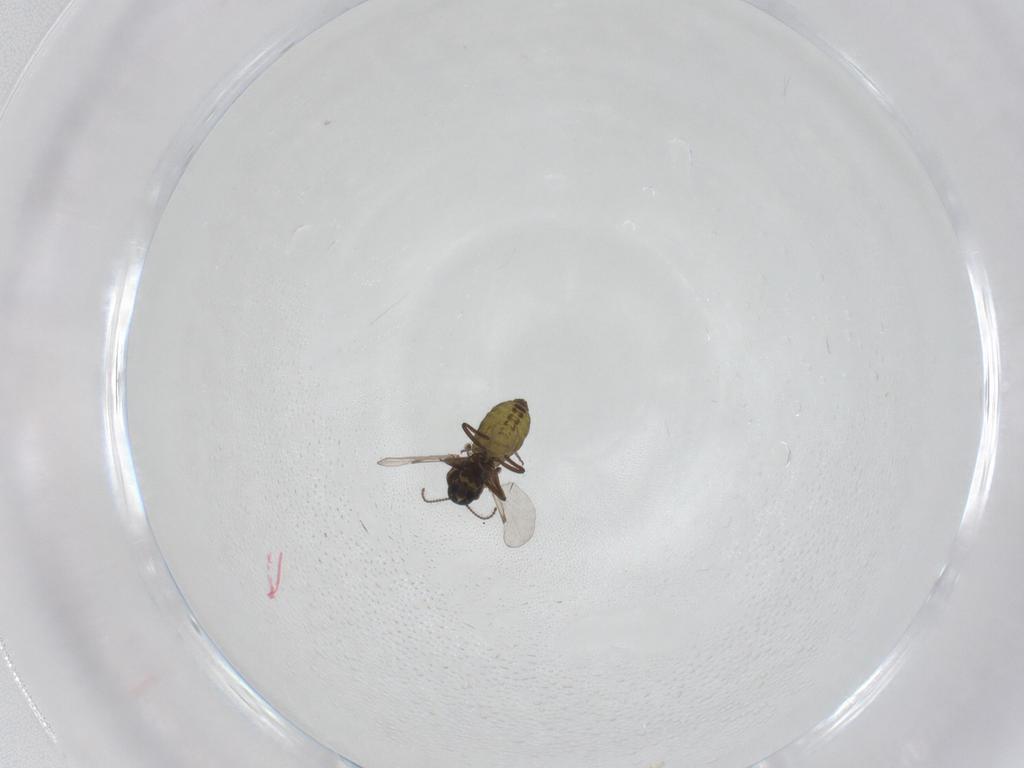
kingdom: Animalia
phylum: Arthropoda
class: Insecta
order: Diptera
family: Ceratopogonidae
